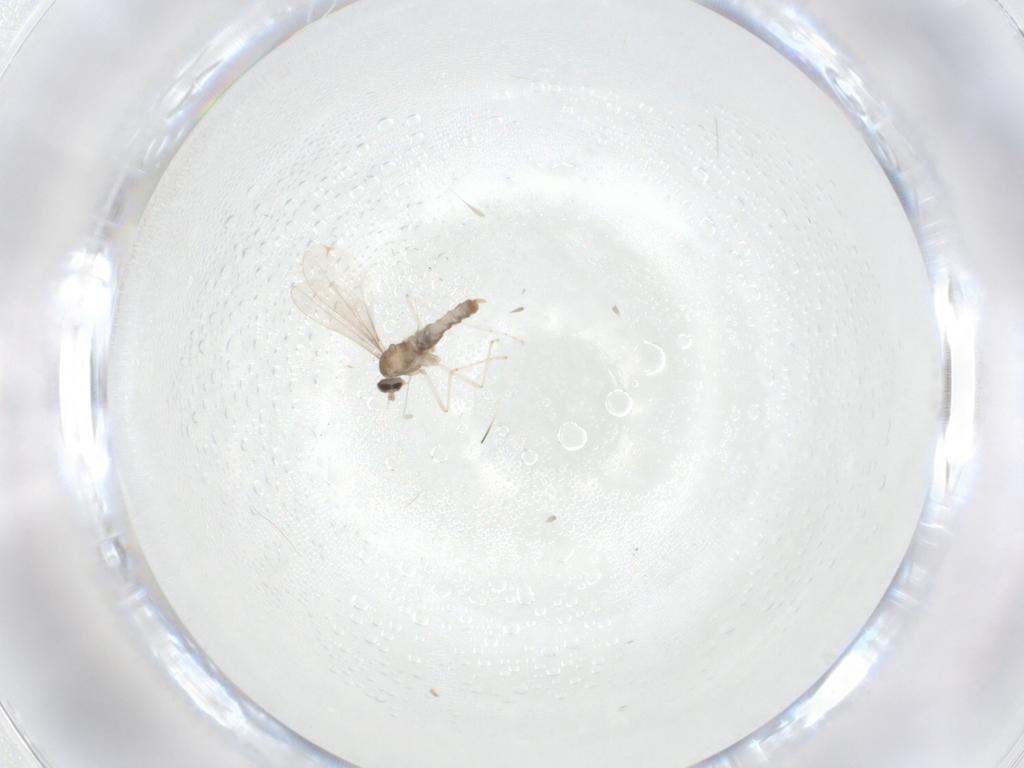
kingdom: Animalia
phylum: Arthropoda
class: Insecta
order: Diptera
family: Cecidomyiidae
